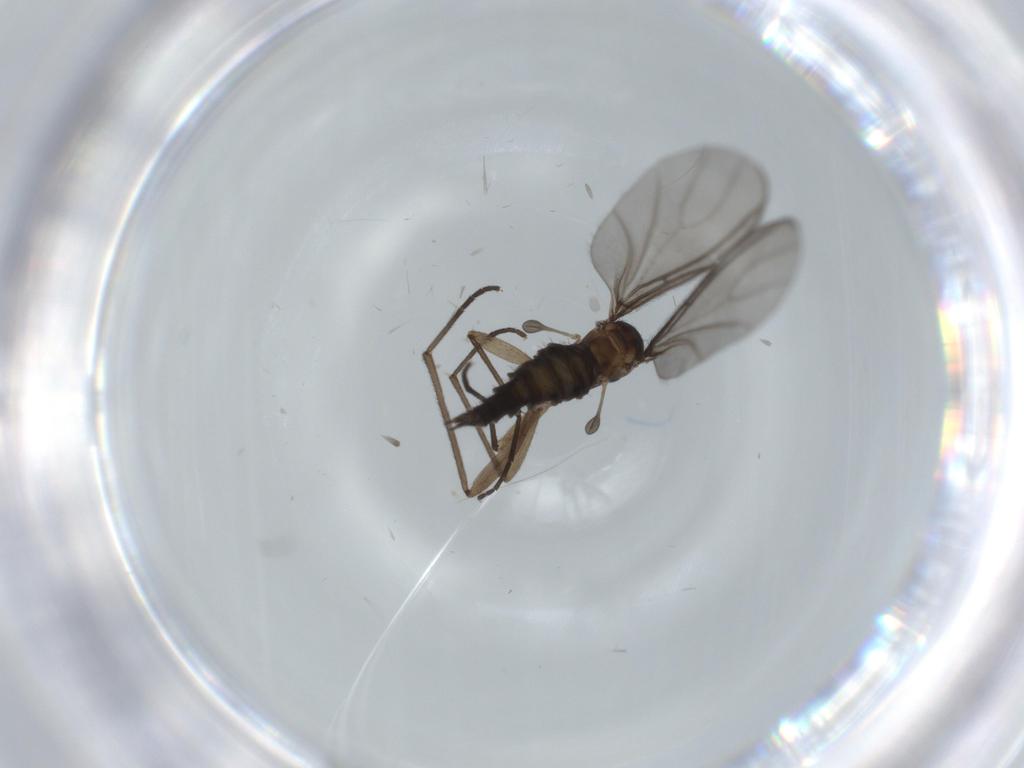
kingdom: Animalia
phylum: Arthropoda
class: Insecta
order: Diptera
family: Sciaridae
